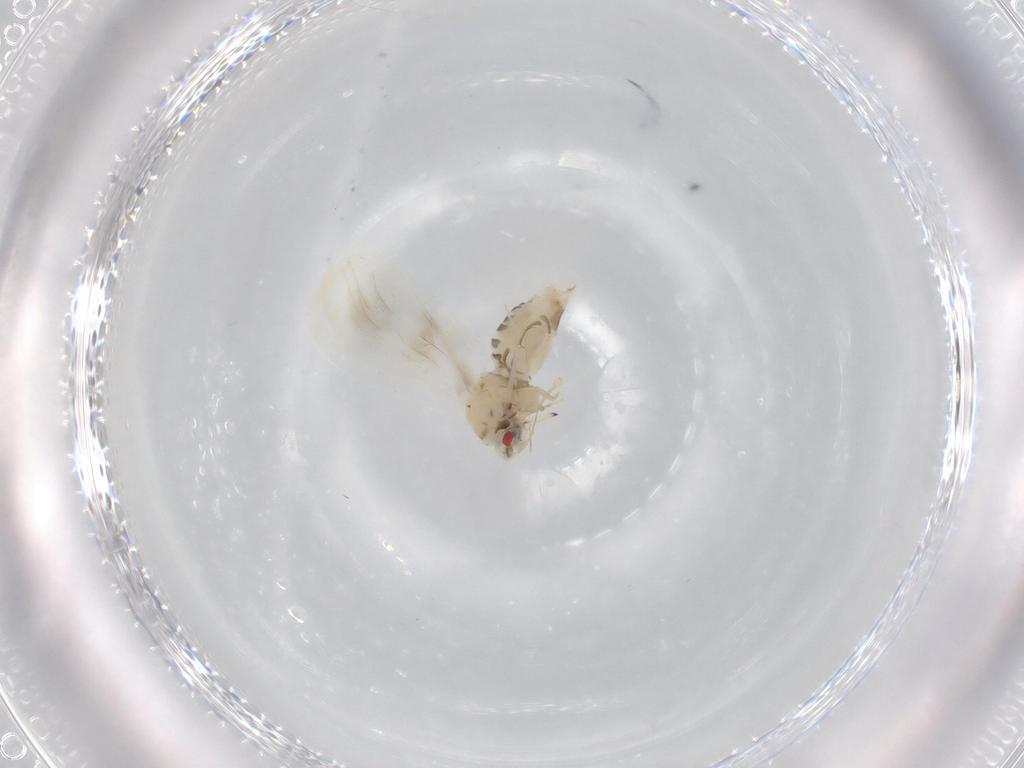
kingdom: Animalia
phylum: Arthropoda
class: Insecta
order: Hemiptera
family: Aleyrodidae
